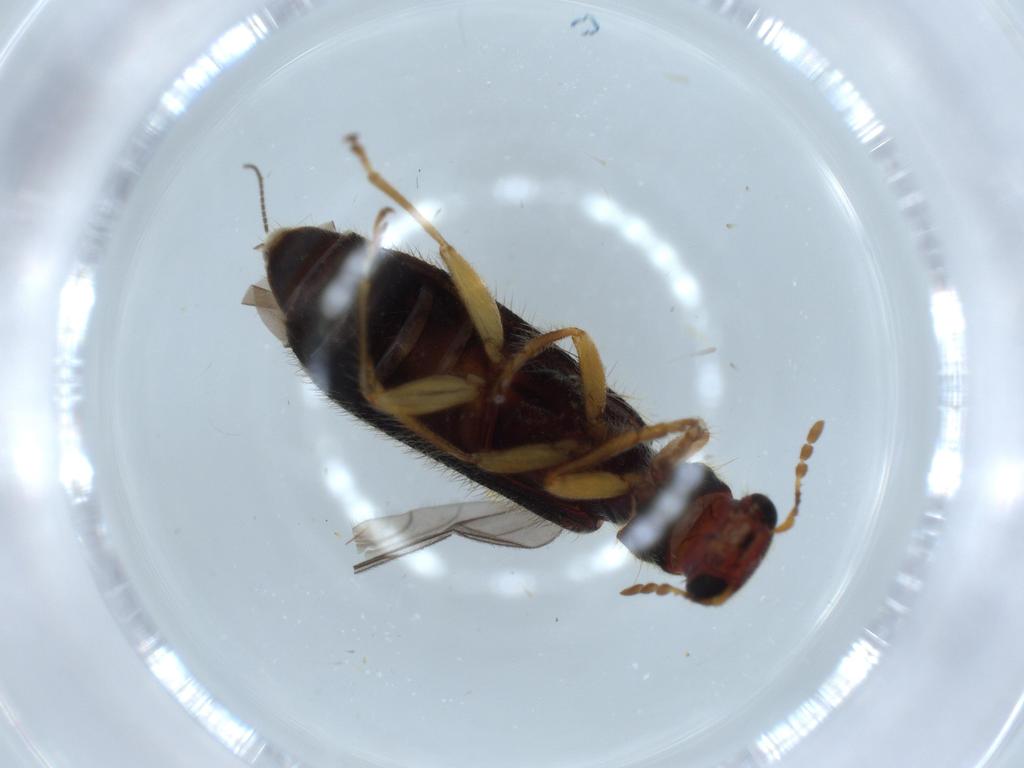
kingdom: Animalia
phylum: Arthropoda
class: Insecta
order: Coleoptera
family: Cleridae
